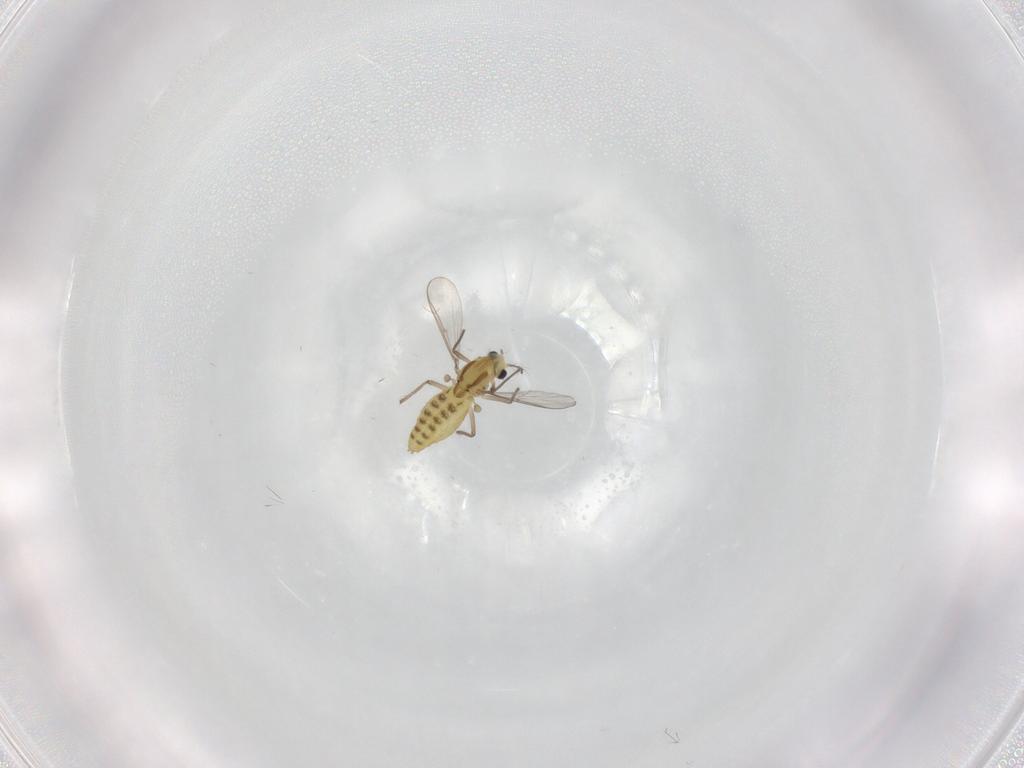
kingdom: Animalia
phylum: Arthropoda
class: Insecta
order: Diptera
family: Chironomidae
